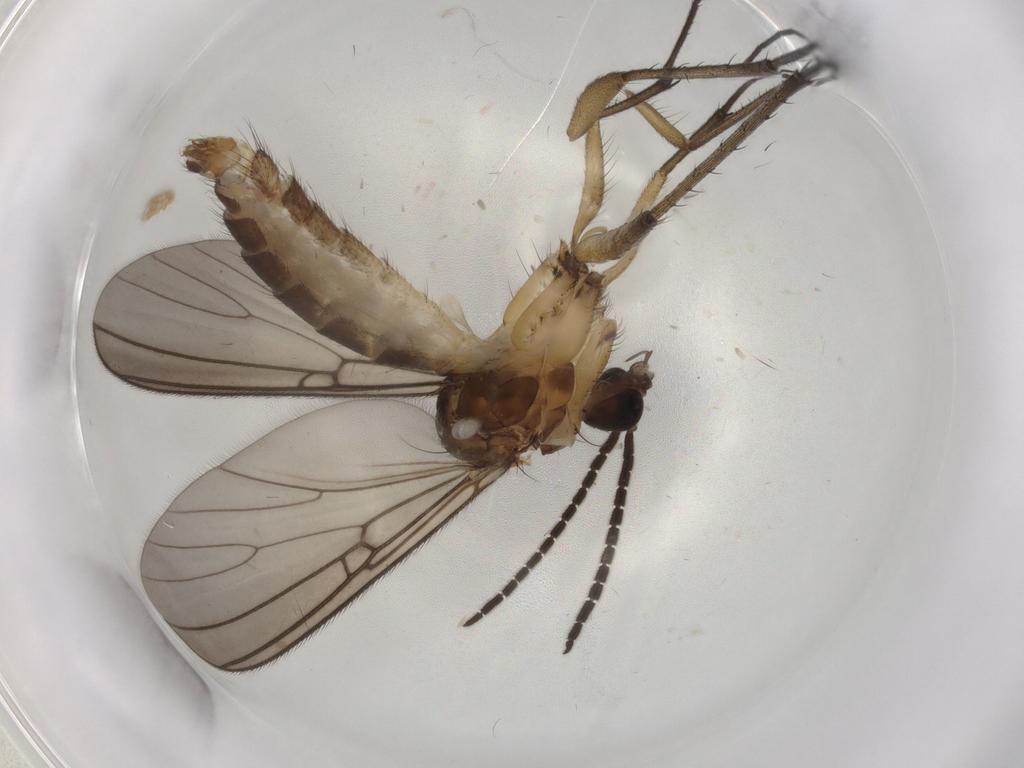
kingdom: Animalia
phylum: Arthropoda
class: Insecta
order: Diptera
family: Mycetophilidae
